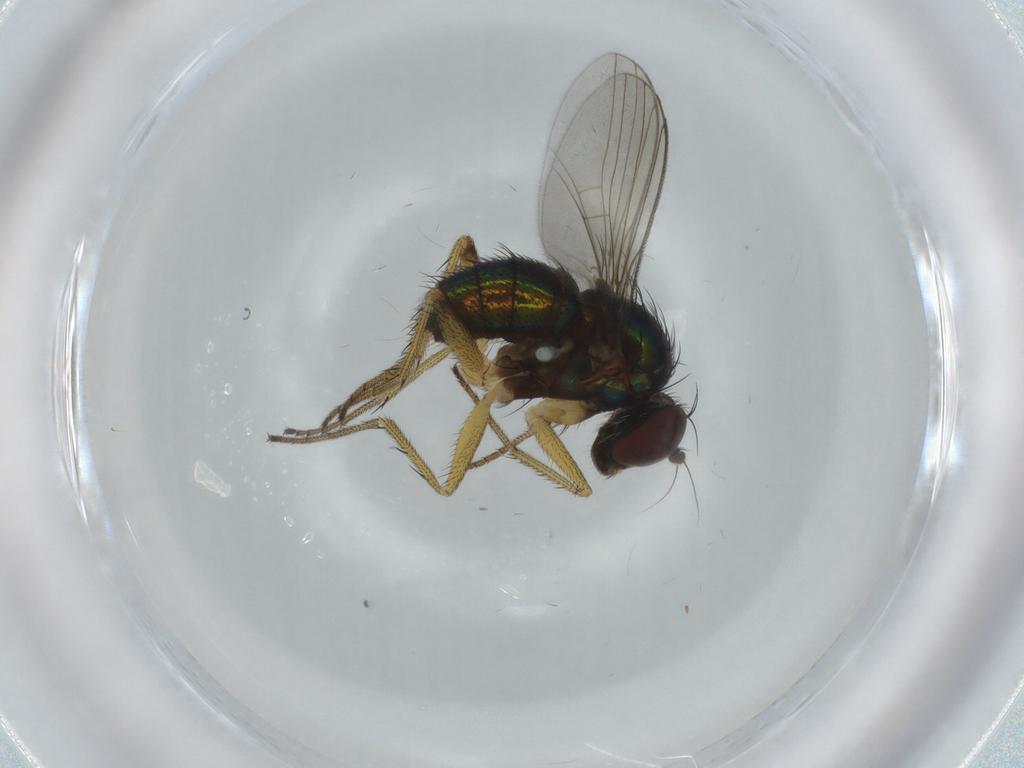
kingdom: Animalia
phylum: Arthropoda
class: Insecta
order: Diptera
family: Dolichopodidae
